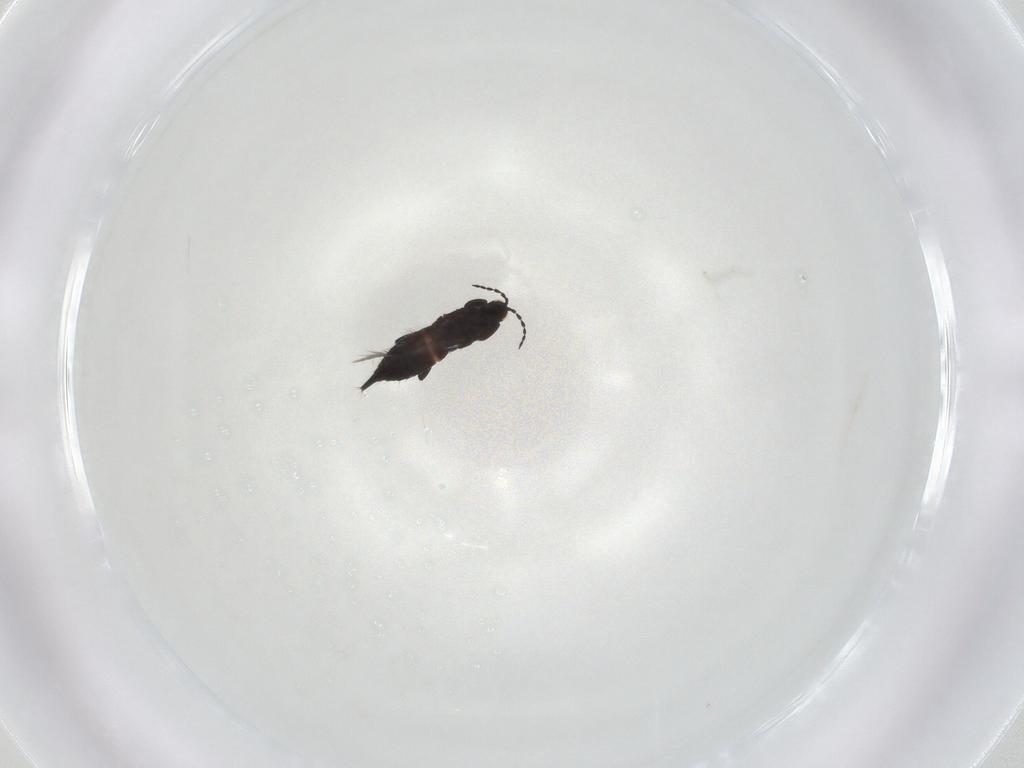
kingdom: Animalia
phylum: Arthropoda
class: Insecta
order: Thysanoptera
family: Phlaeothripidae
